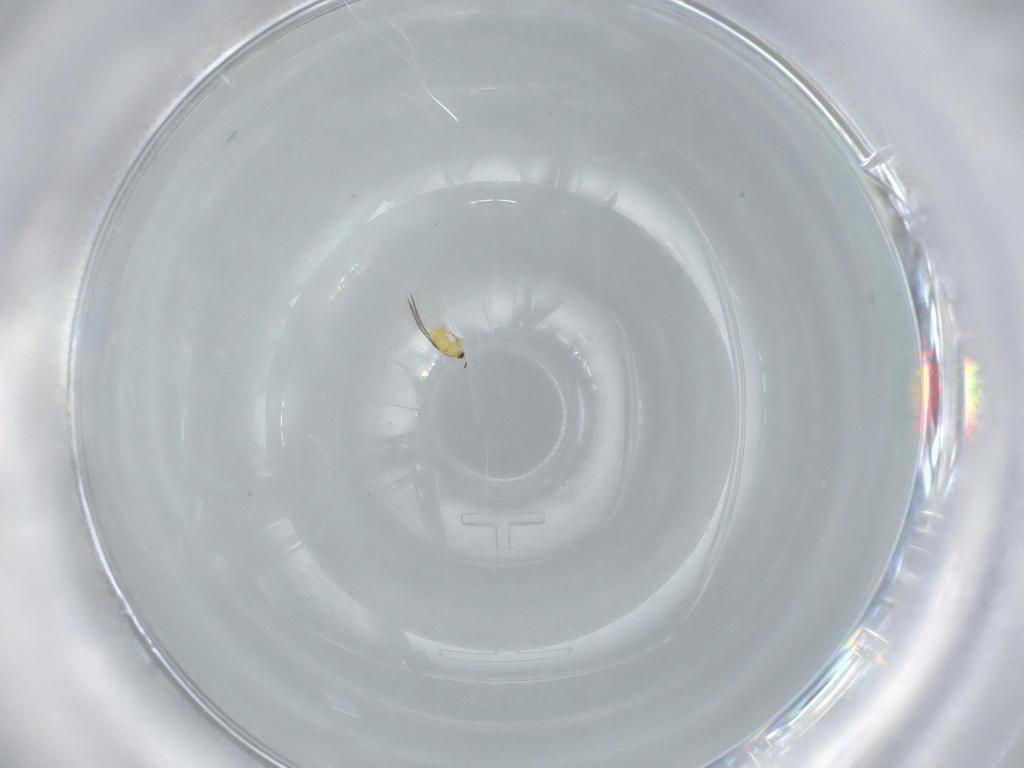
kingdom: Animalia
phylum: Arthropoda
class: Insecta
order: Thysanoptera
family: Thripidae
